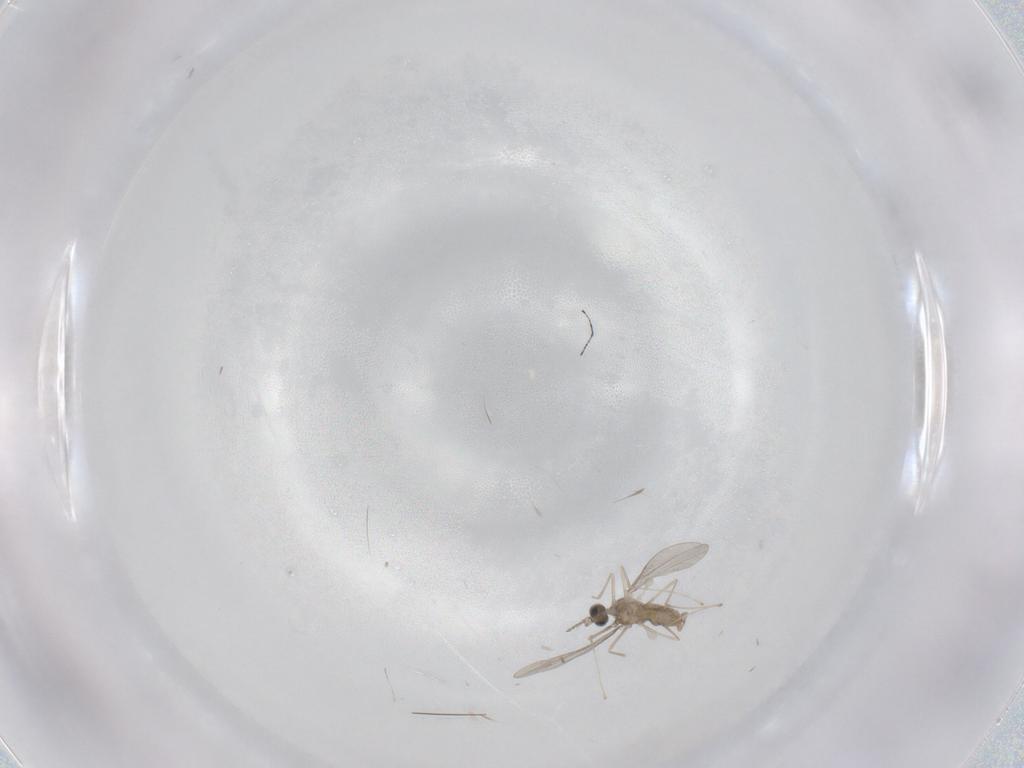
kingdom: Animalia
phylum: Arthropoda
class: Insecta
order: Diptera
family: Cecidomyiidae
